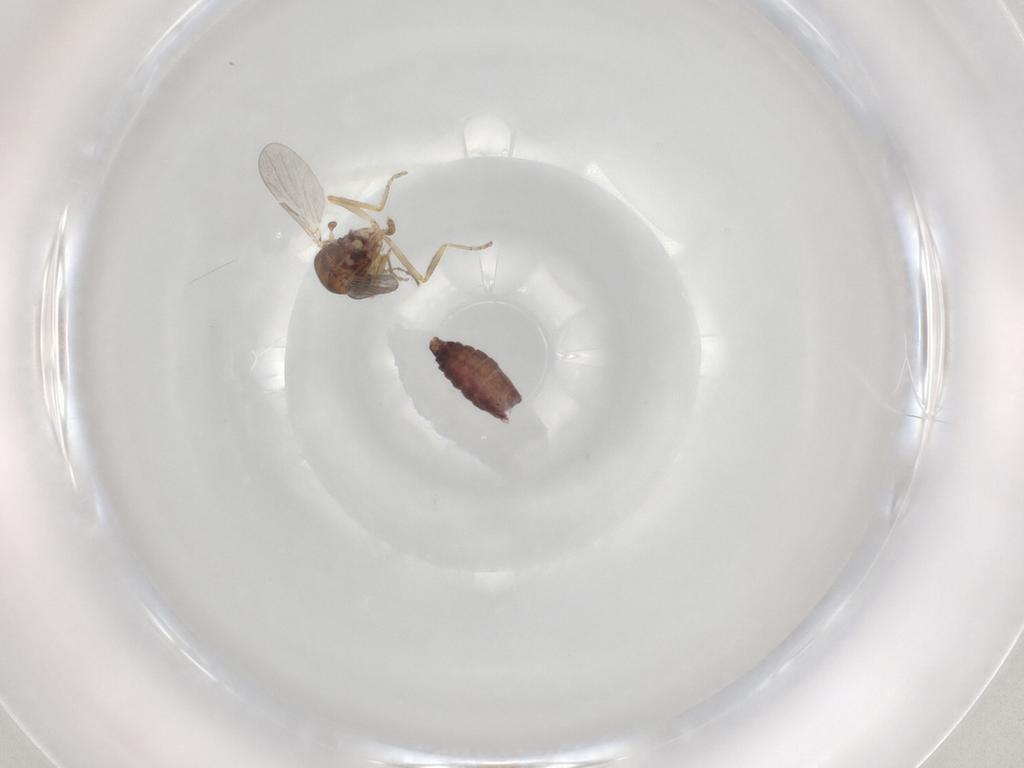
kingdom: Animalia
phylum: Arthropoda
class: Insecta
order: Diptera
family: Ceratopogonidae
